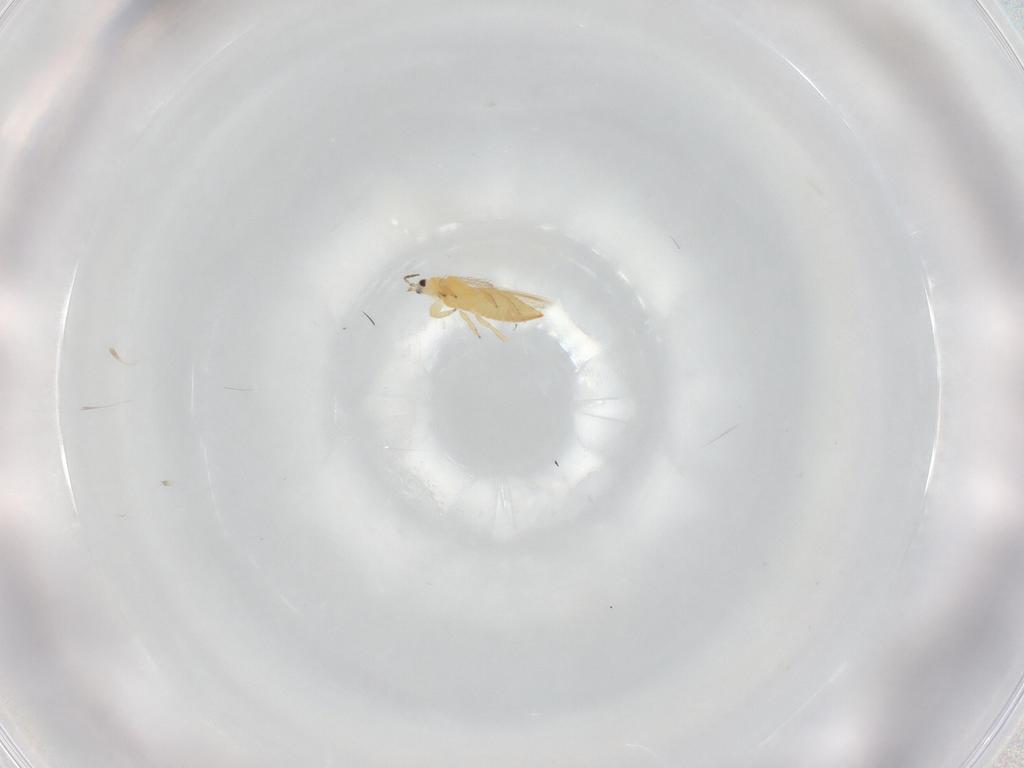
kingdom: Animalia
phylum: Arthropoda
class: Insecta
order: Thysanoptera
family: Melanthripidae
